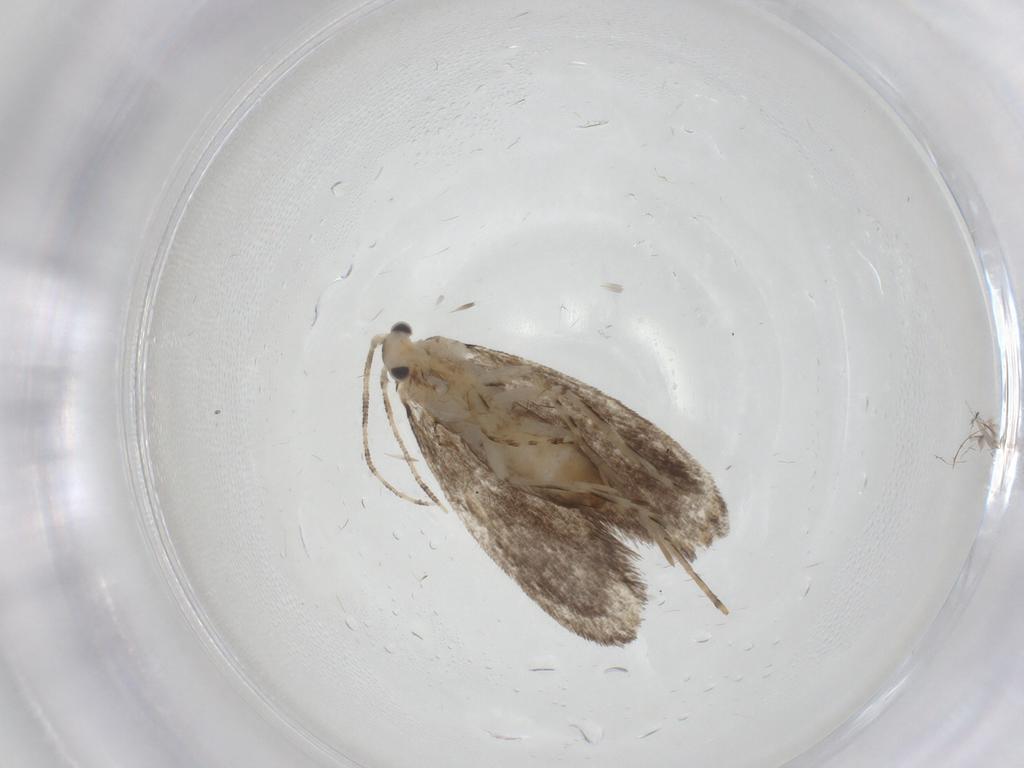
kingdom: Animalia
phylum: Arthropoda
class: Insecta
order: Lepidoptera
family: Tineidae
